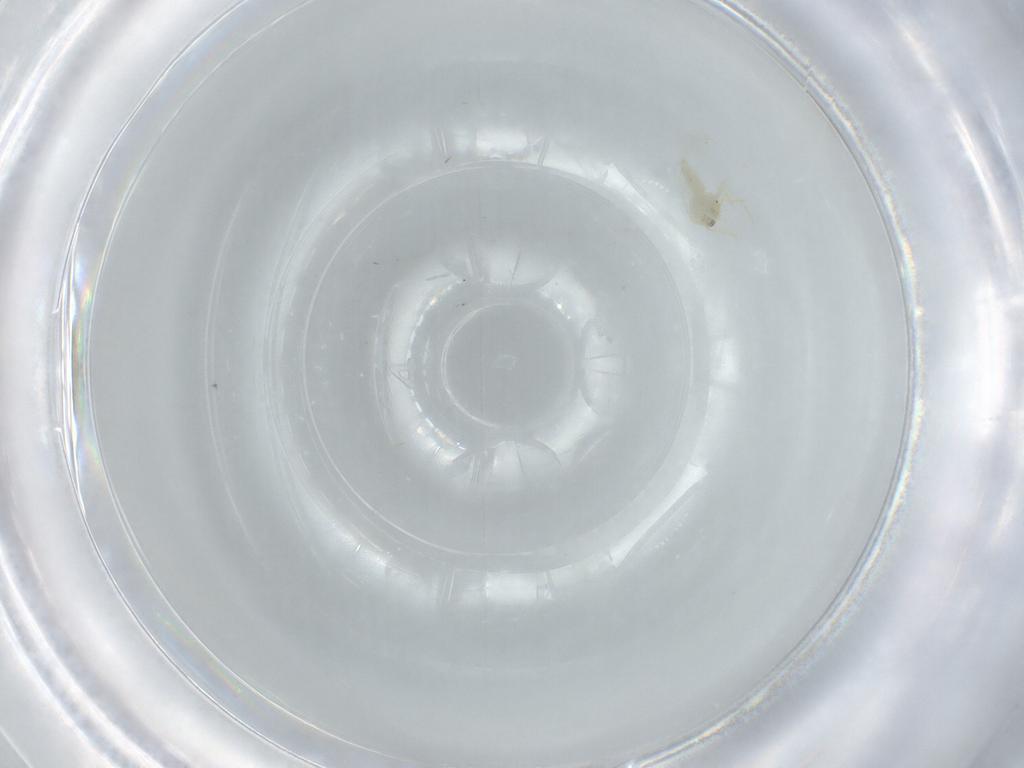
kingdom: Animalia
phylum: Arthropoda
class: Insecta
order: Hemiptera
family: Aleyrodidae
